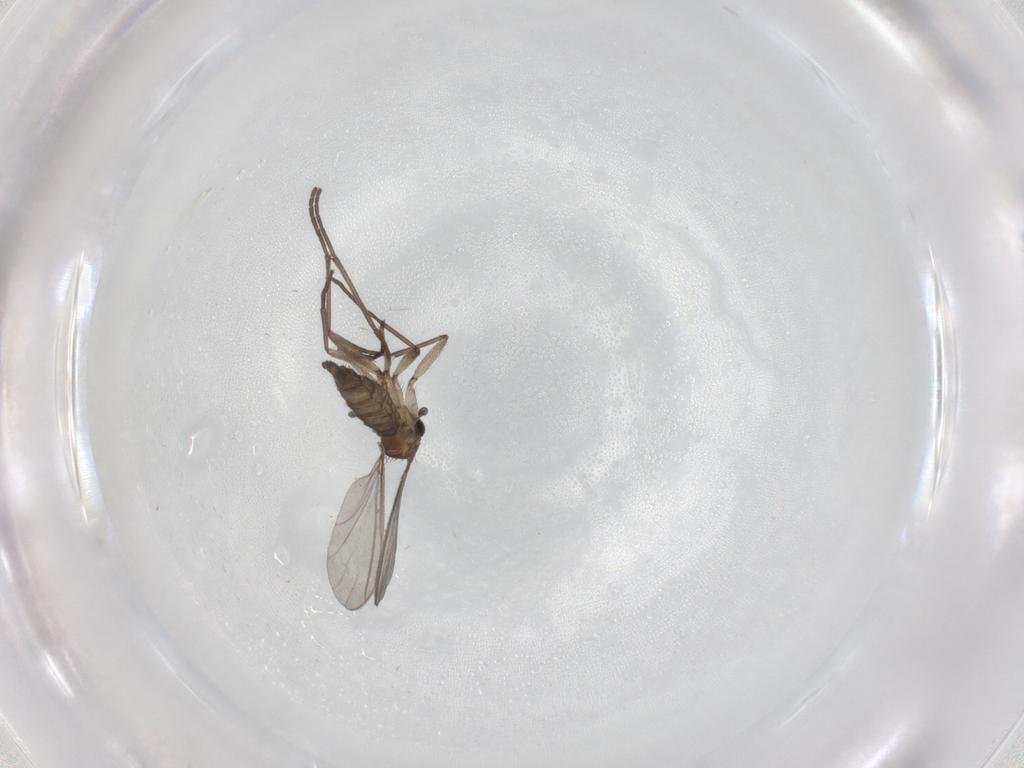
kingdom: Animalia
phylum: Arthropoda
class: Insecta
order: Diptera
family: Sciaridae
